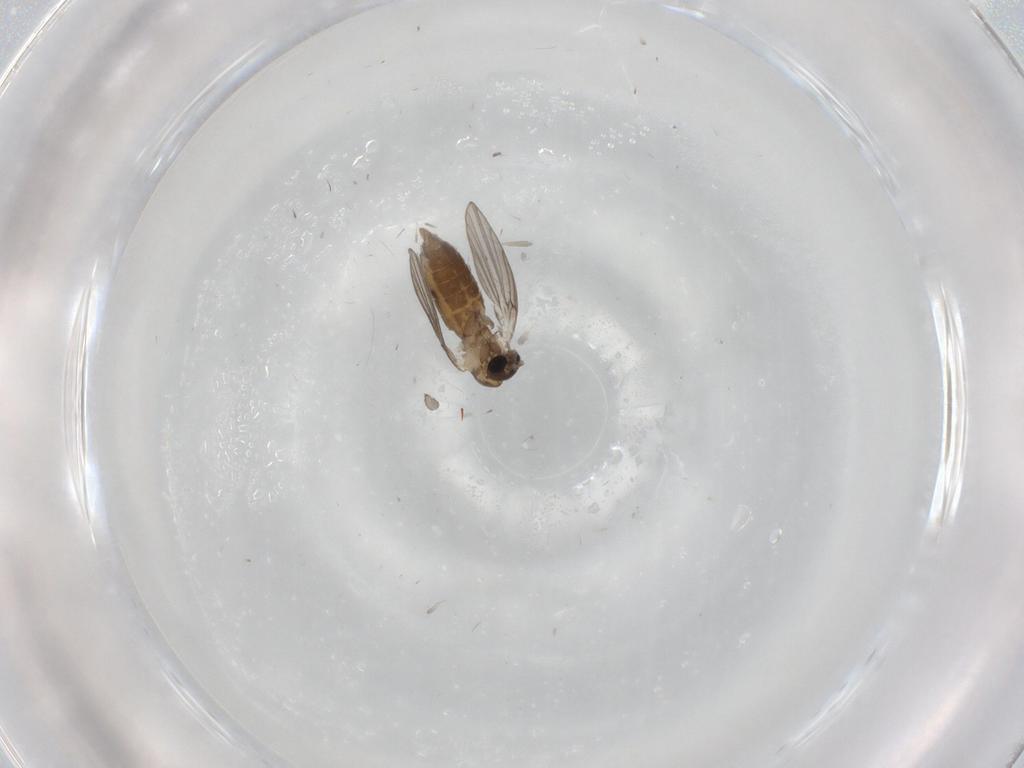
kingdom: Animalia
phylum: Arthropoda
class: Insecta
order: Diptera
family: Psychodidae
